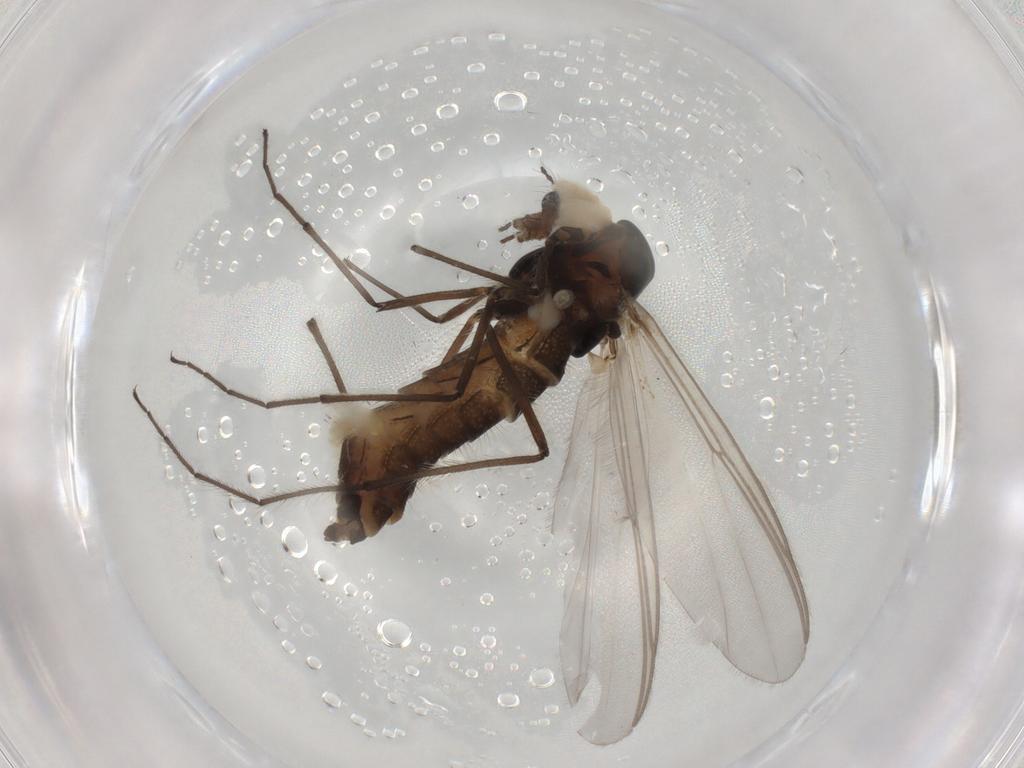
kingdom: Animalia
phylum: Arthropoda
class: Insecta
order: Diptera
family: Chironomidae
